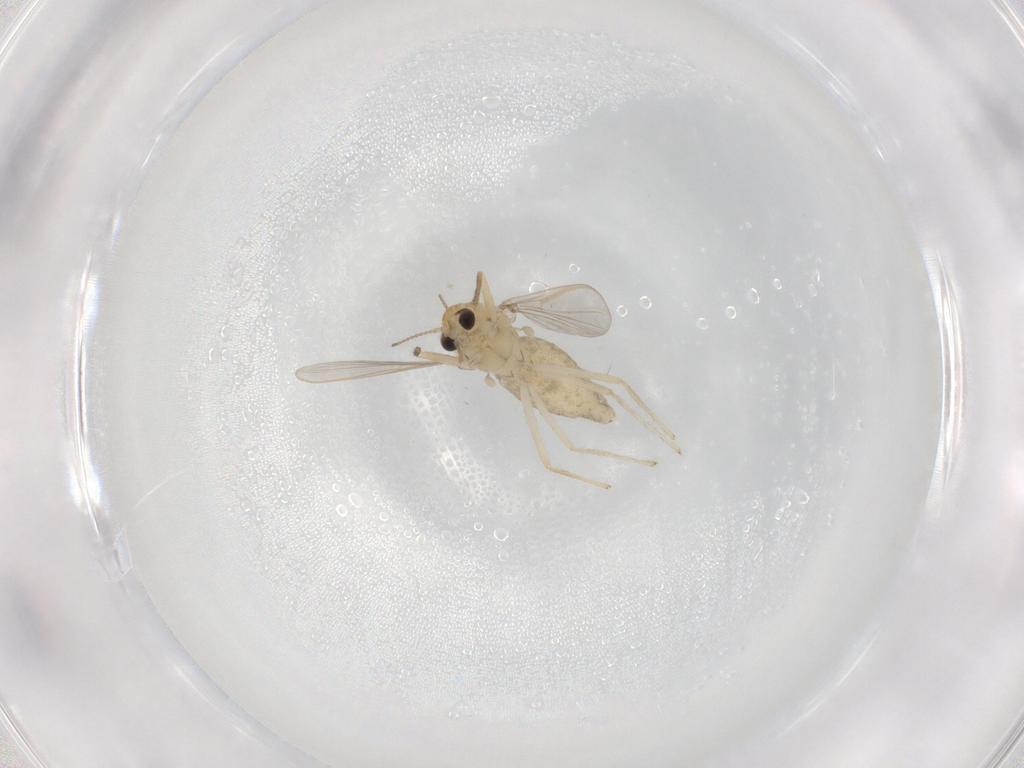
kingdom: Animalia
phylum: Arthropoda
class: Insecta
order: Diptera
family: Chironomidae
